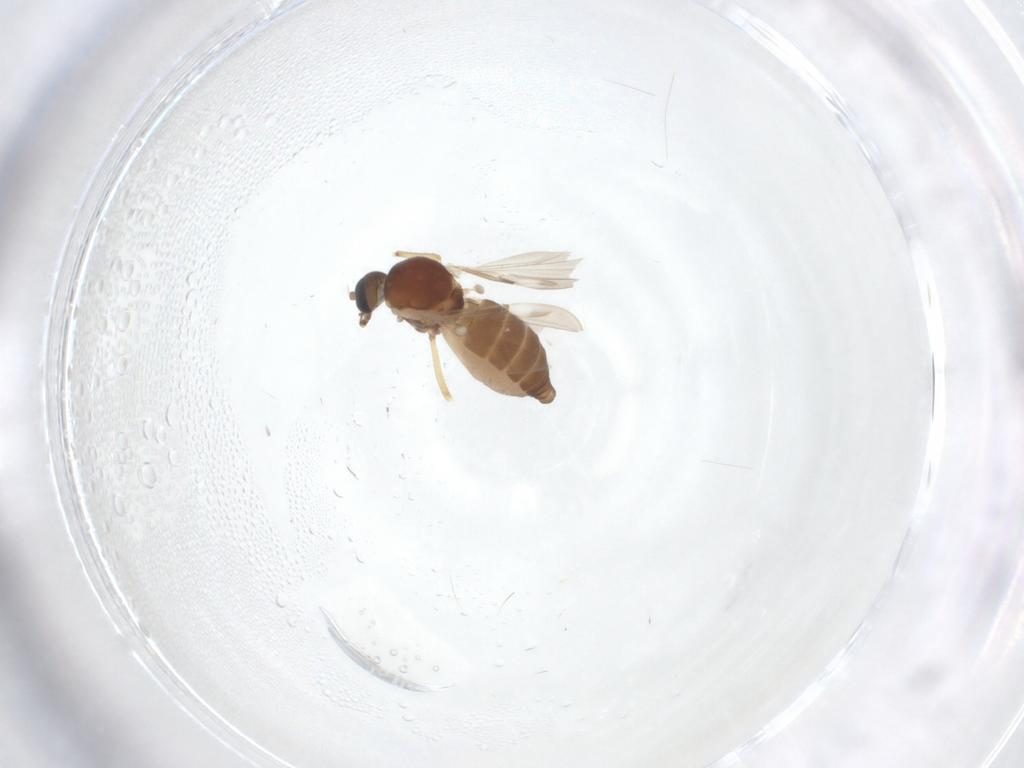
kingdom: Animalia
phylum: Arthropoda
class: Insecta
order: Diptera
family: Ceratopogonidae
